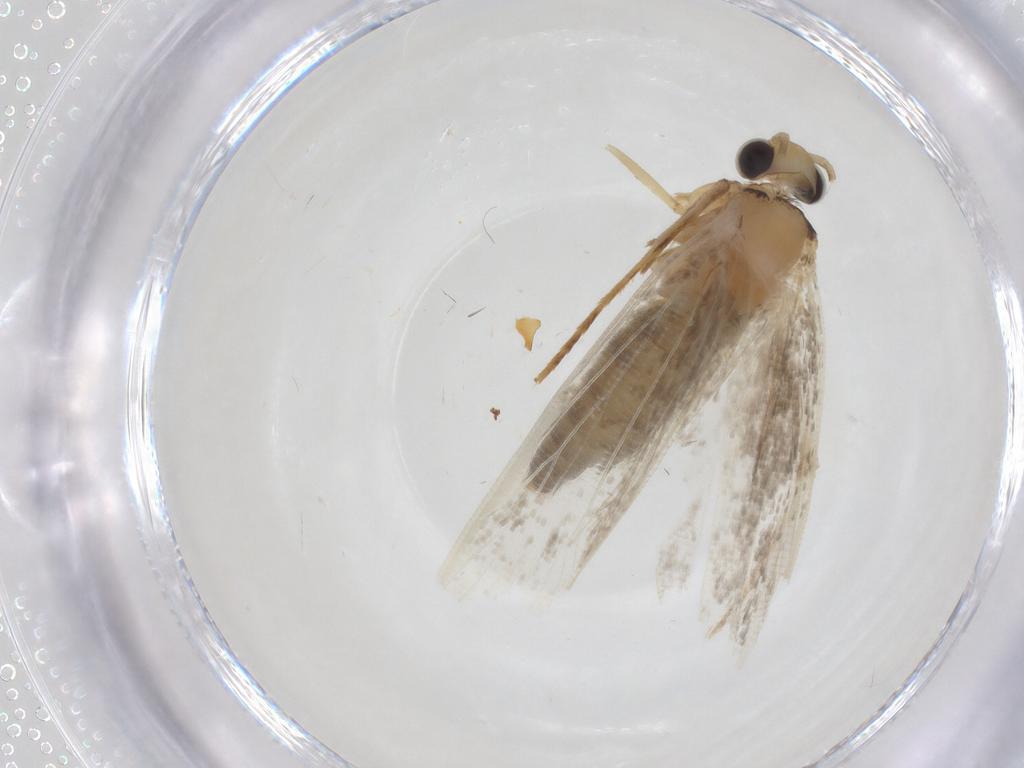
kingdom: Animalia
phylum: Arthropoda
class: Insecta
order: Lepidoptera
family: Tineidae
